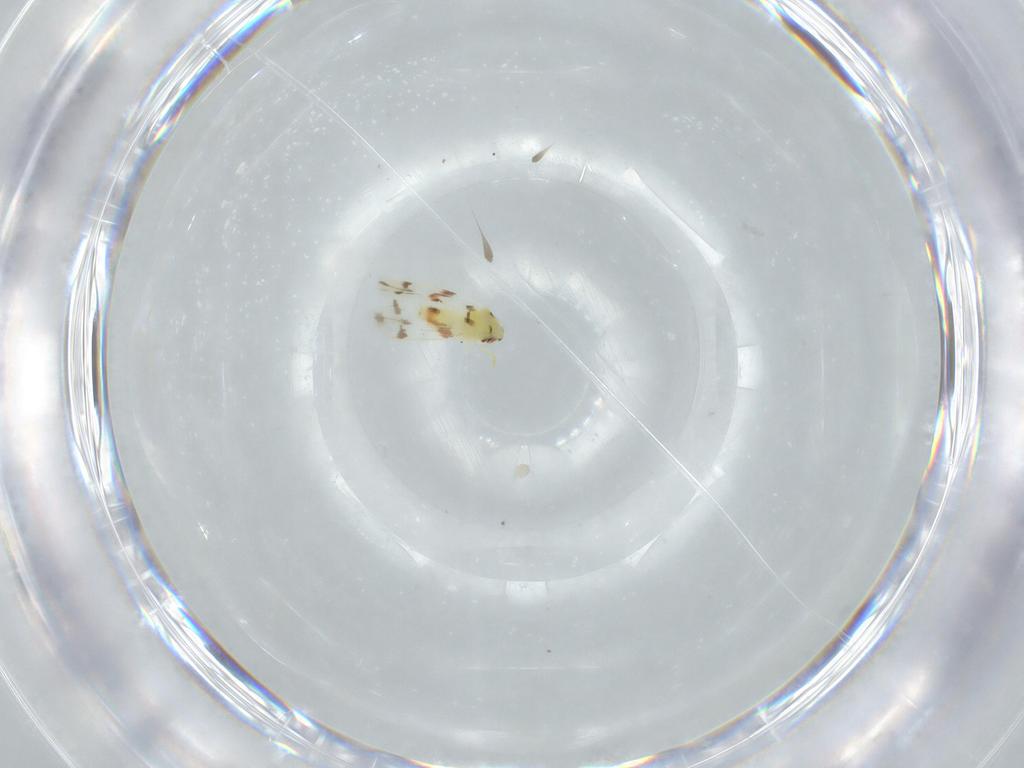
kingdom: Animalia
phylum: Arthropoda
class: Insecta
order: Hemiptera
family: Aleyrodidae
